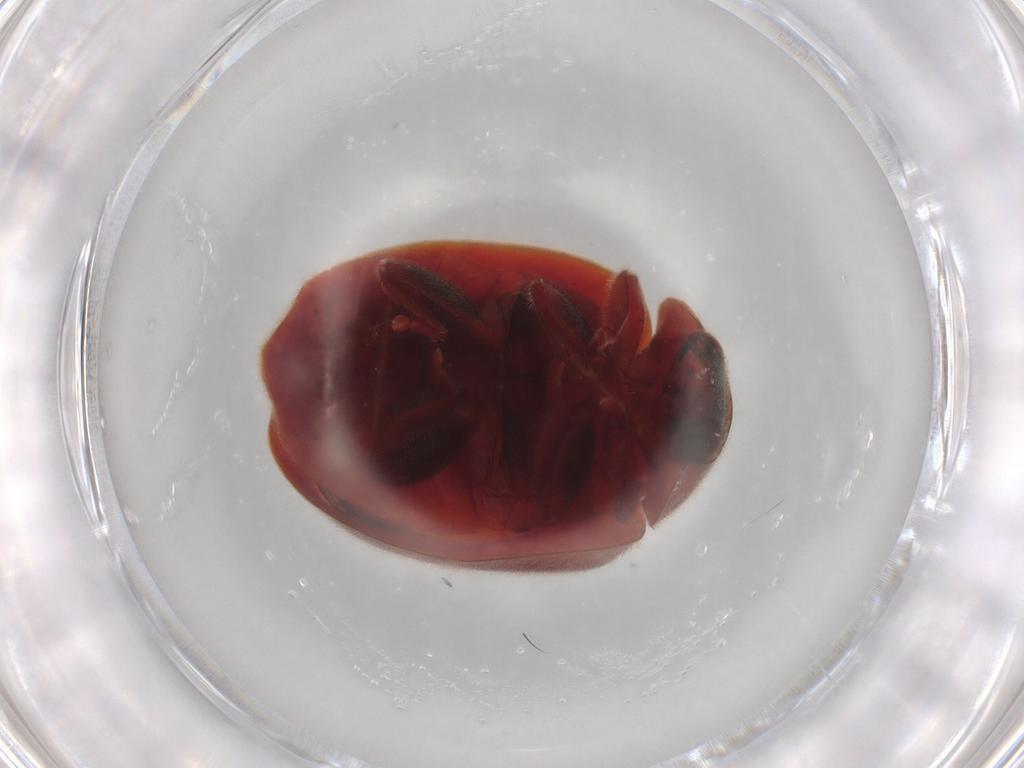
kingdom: Animalia
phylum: Arthropoda
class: Insecta
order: Coleoptera
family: Coccinellidae
